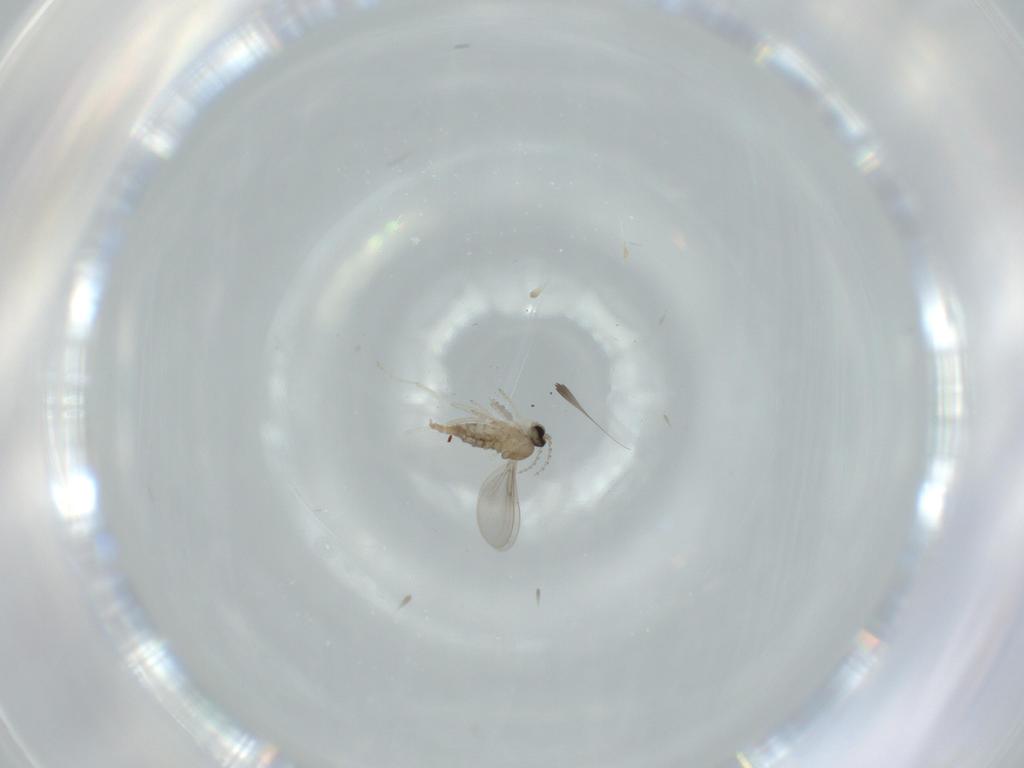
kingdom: Animalia
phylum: Arthropoda
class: Insecta
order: Diptera
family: Cecidomyiidae
